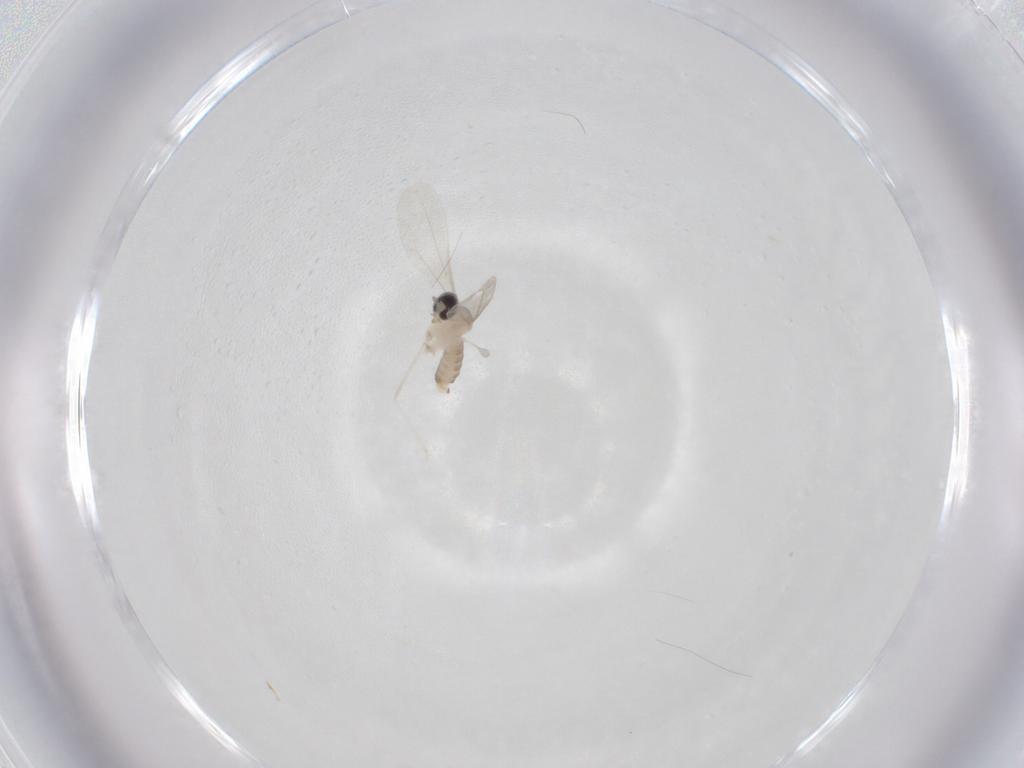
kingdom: Animalia
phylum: Arthropoda
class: Insecta
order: Diptera
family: Cecidomyiidae
